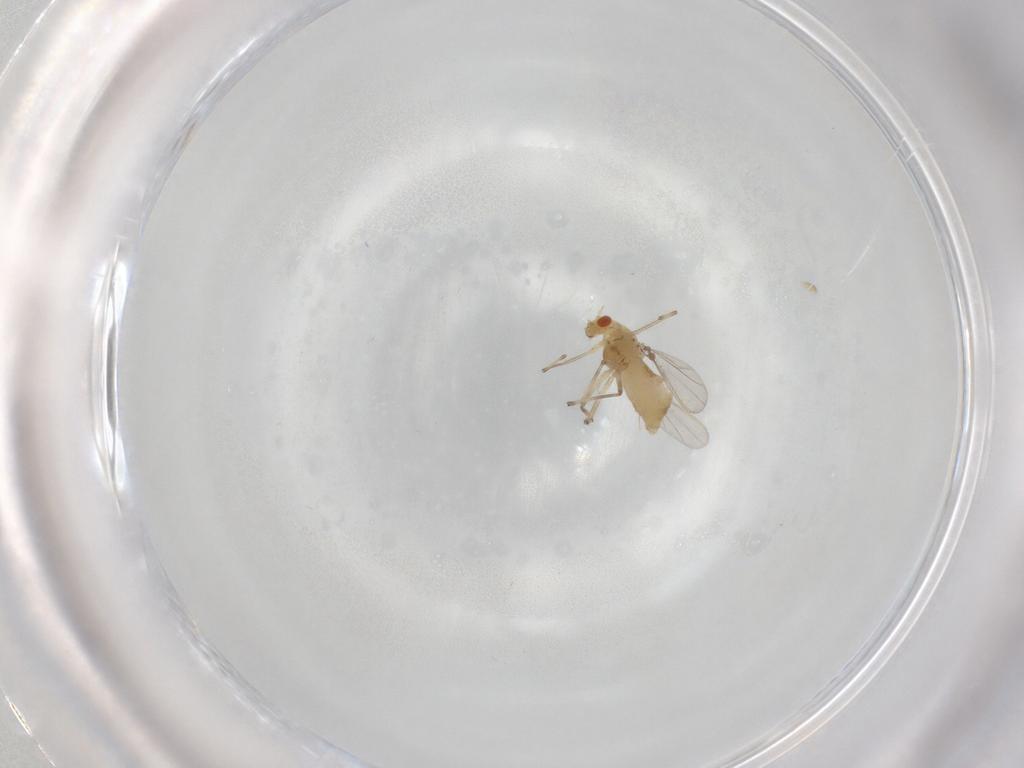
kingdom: Animalia
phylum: Arthropoda
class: Insecta
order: Diptera
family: Chironomidae
